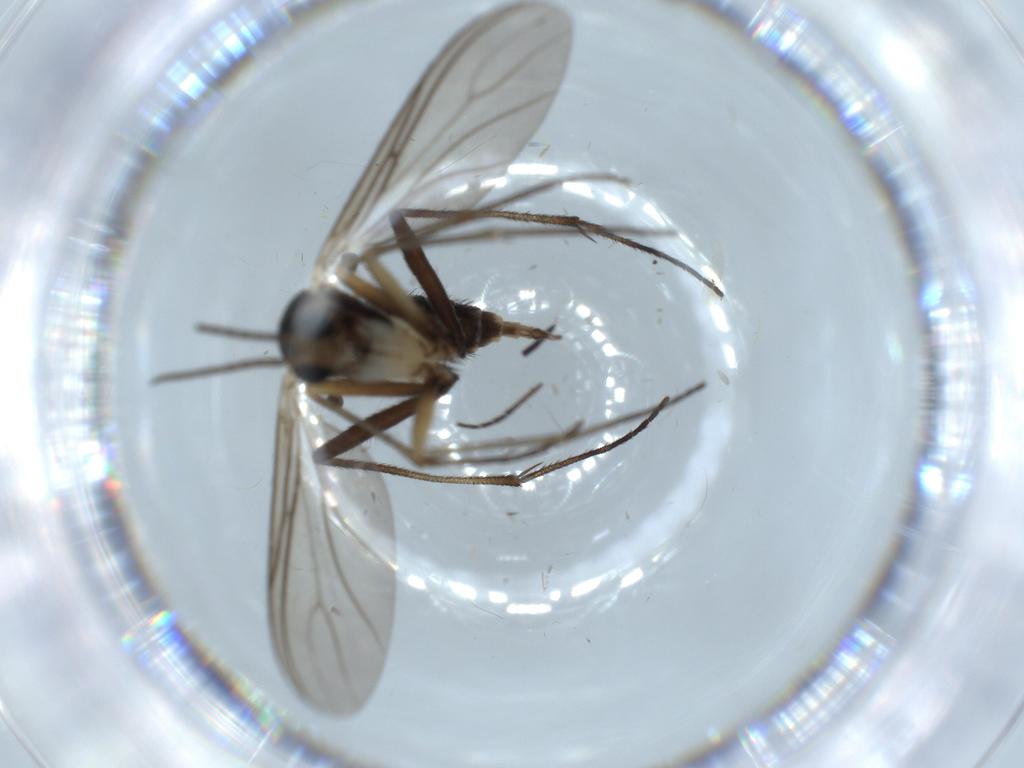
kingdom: Animalia
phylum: Arthropoda
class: Insecta
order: Diptera
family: Sciaridae
